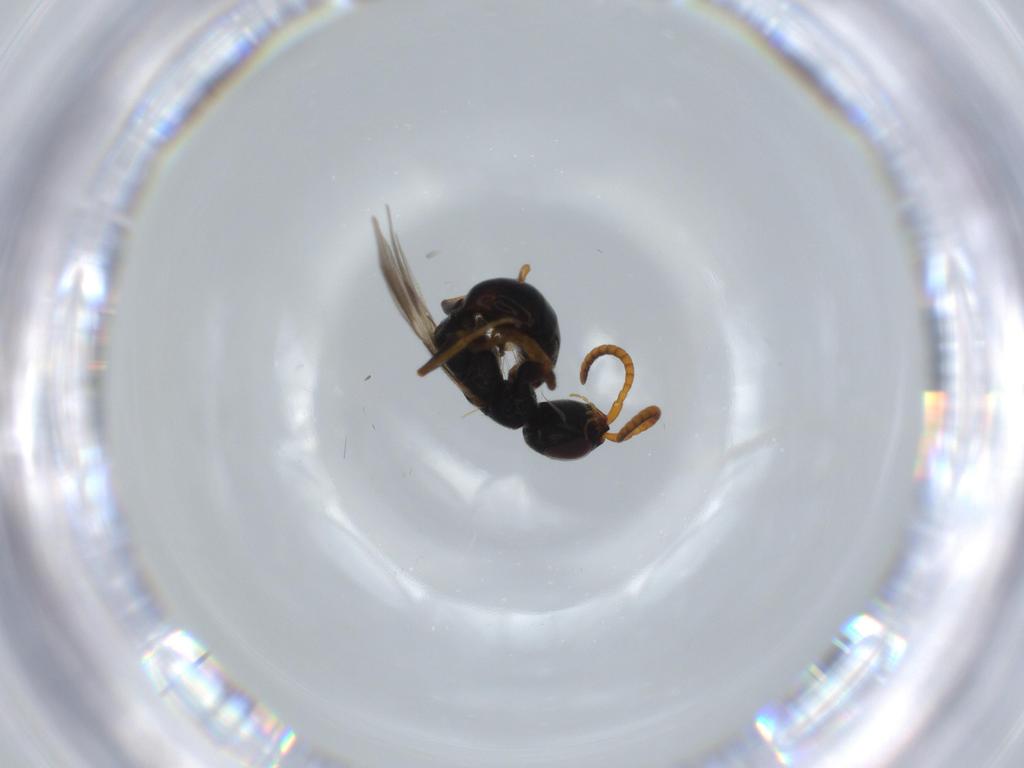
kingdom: Animalia
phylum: Arthropoda
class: Insecta
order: Hymenoptera
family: Bethylidae
